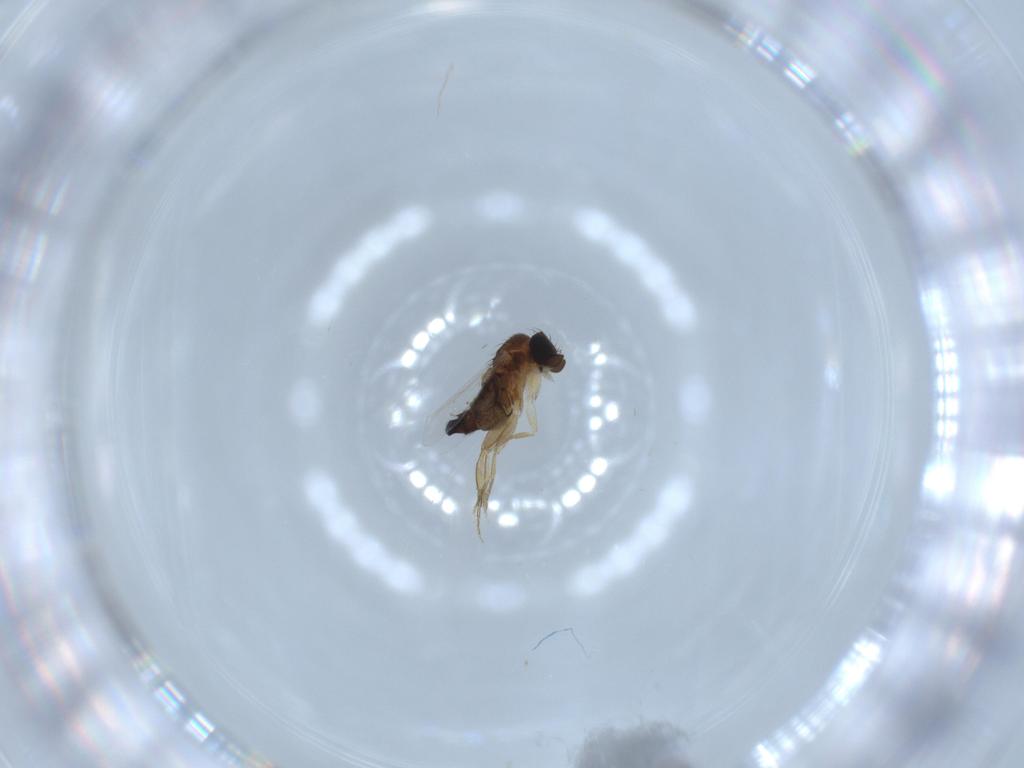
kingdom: Animalia
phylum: Arthropoda
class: Insecta
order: Diptera
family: Phoridae
